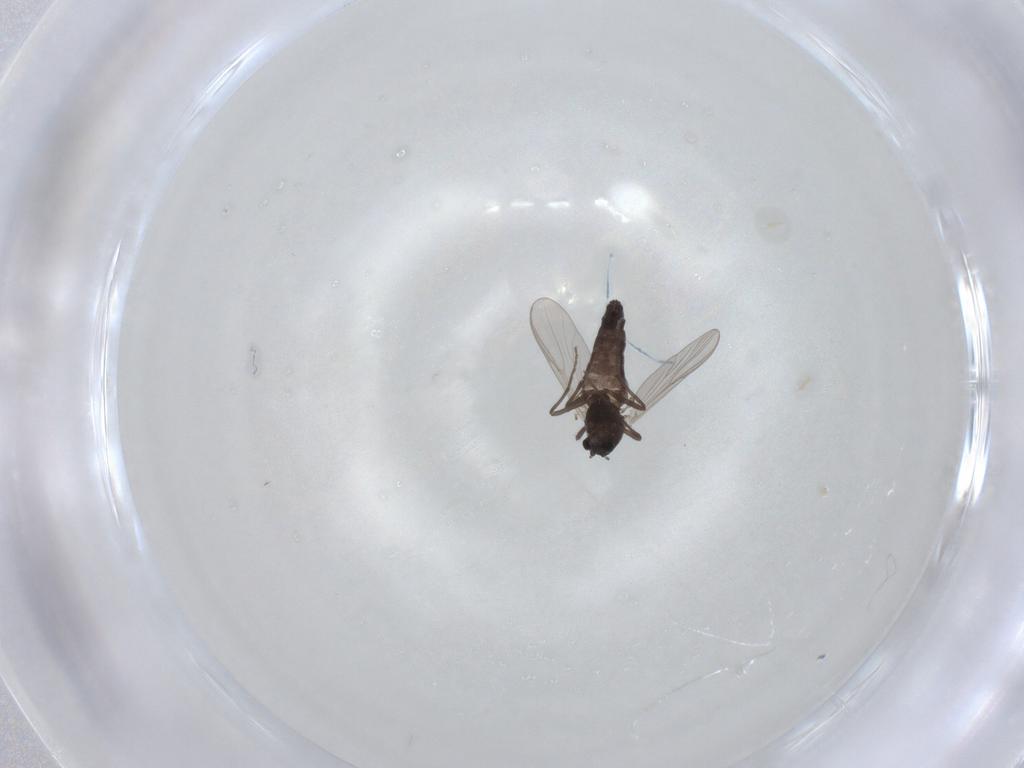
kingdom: Animalia
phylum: Arthropoda
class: Insecta
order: Diptera
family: Chironomidae
